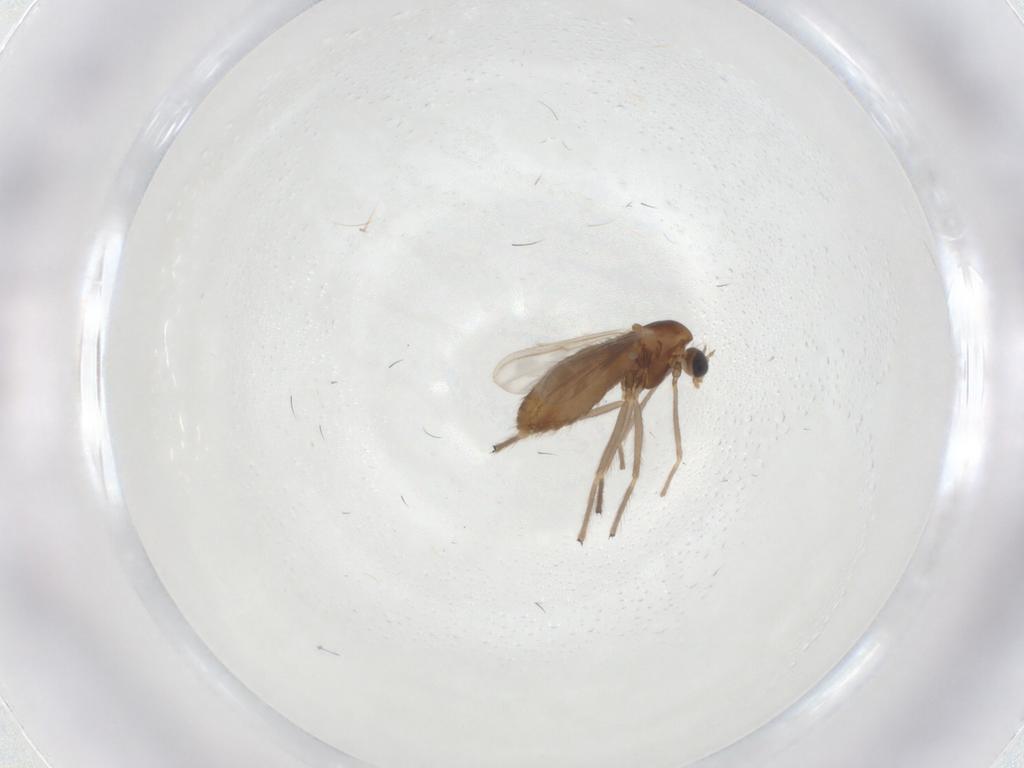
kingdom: Animalia
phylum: Arthropoda
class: Insecta
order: Diptera
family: Chironomidae
